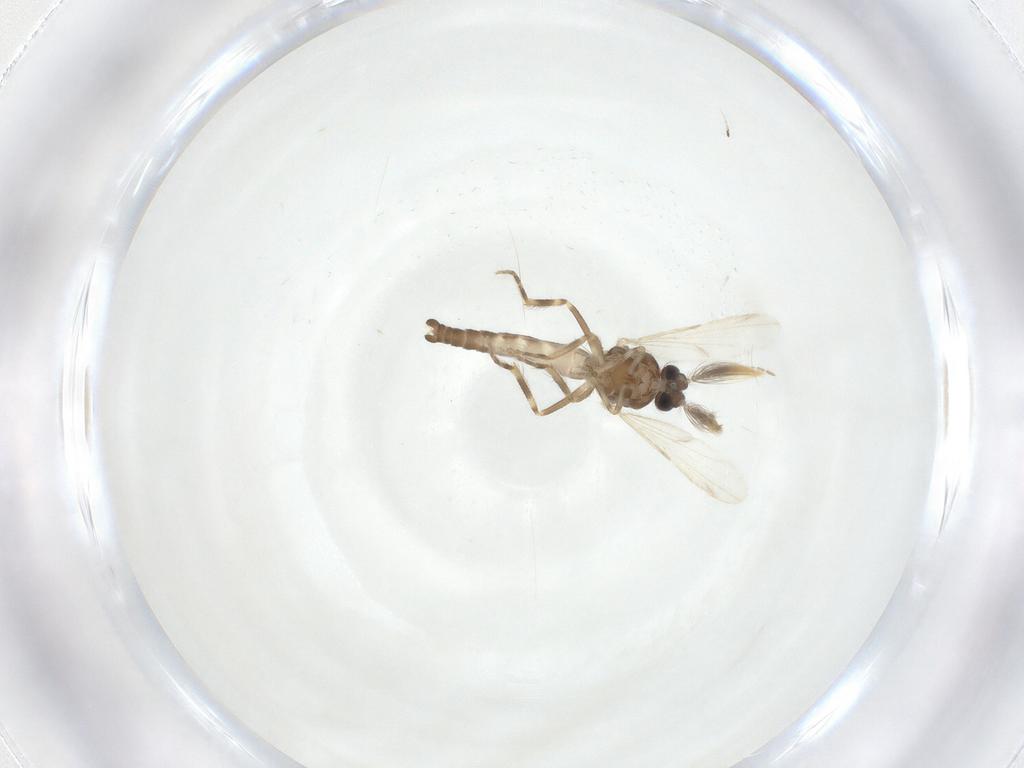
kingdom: Animalia
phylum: Arthropoda
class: Insecta
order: Diptera
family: Ceratopogonidae
